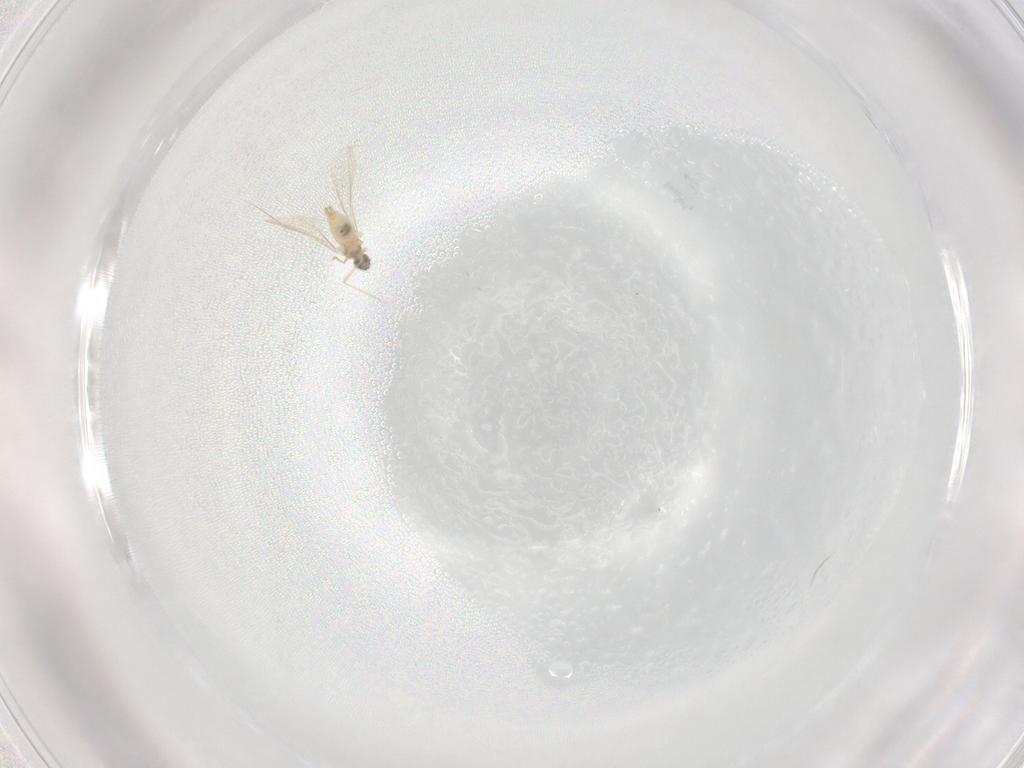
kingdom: Animalia
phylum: Arthropoda
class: Insecta
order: Diptera
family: Cecidomyiidae
